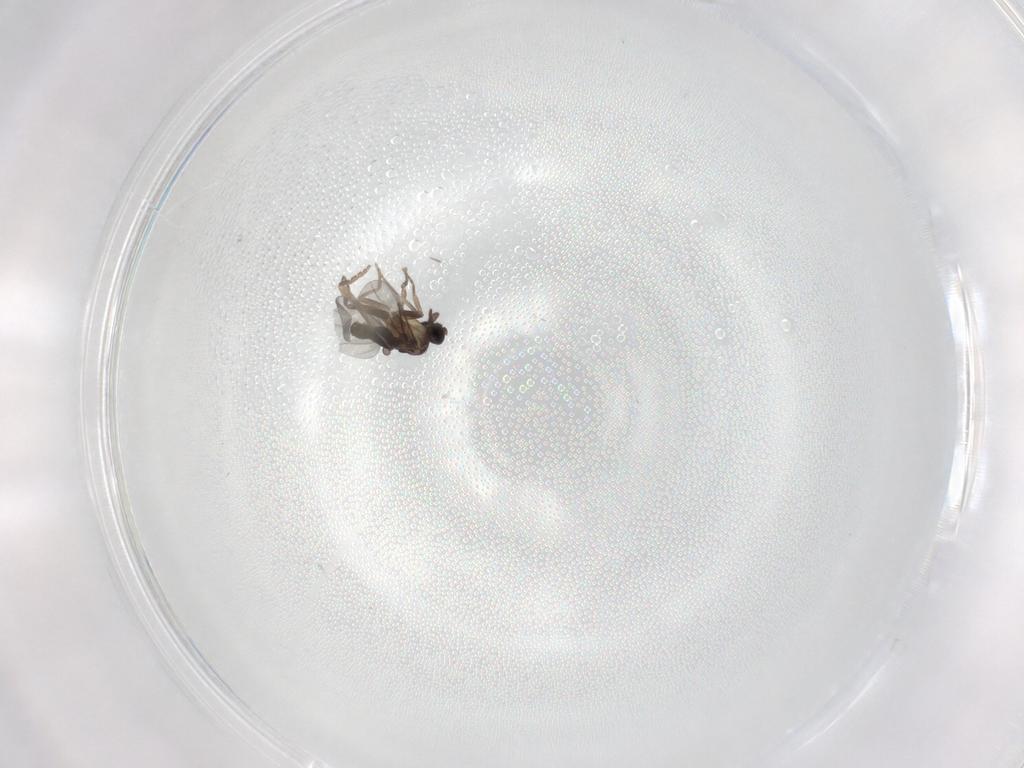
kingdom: Animalia
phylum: Arthropoda
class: Insecta
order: Diptera
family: Cecidomyiidae
